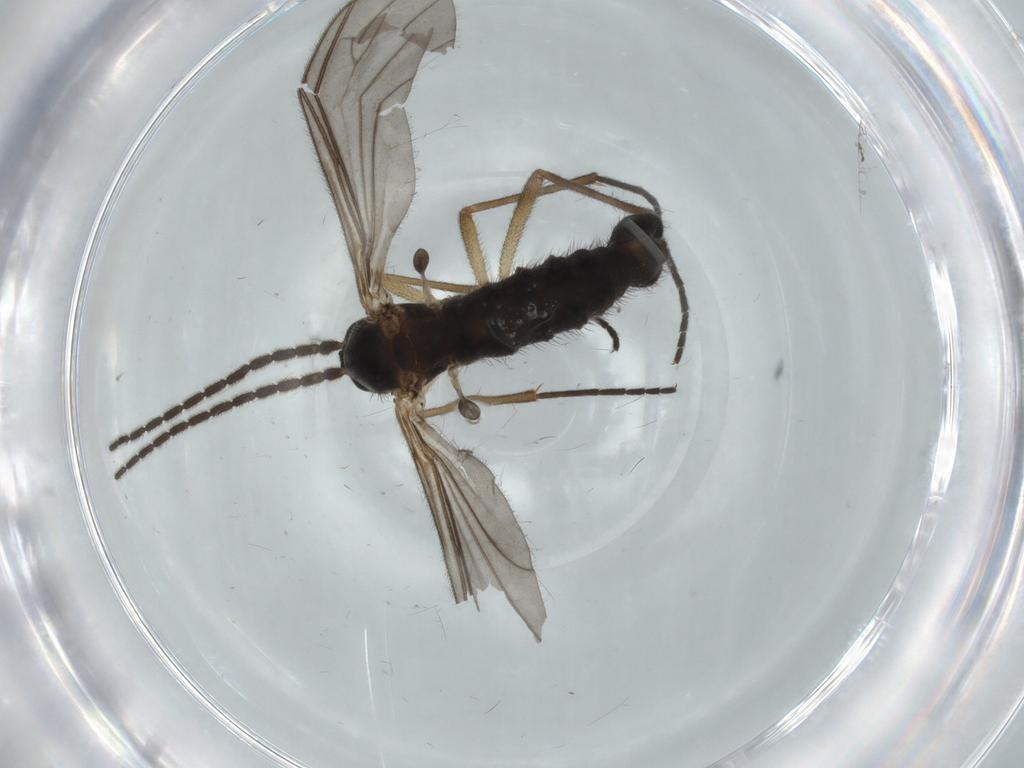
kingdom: Animalia
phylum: Arthropoda
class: Insecta
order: Diptera
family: Sciaridae
